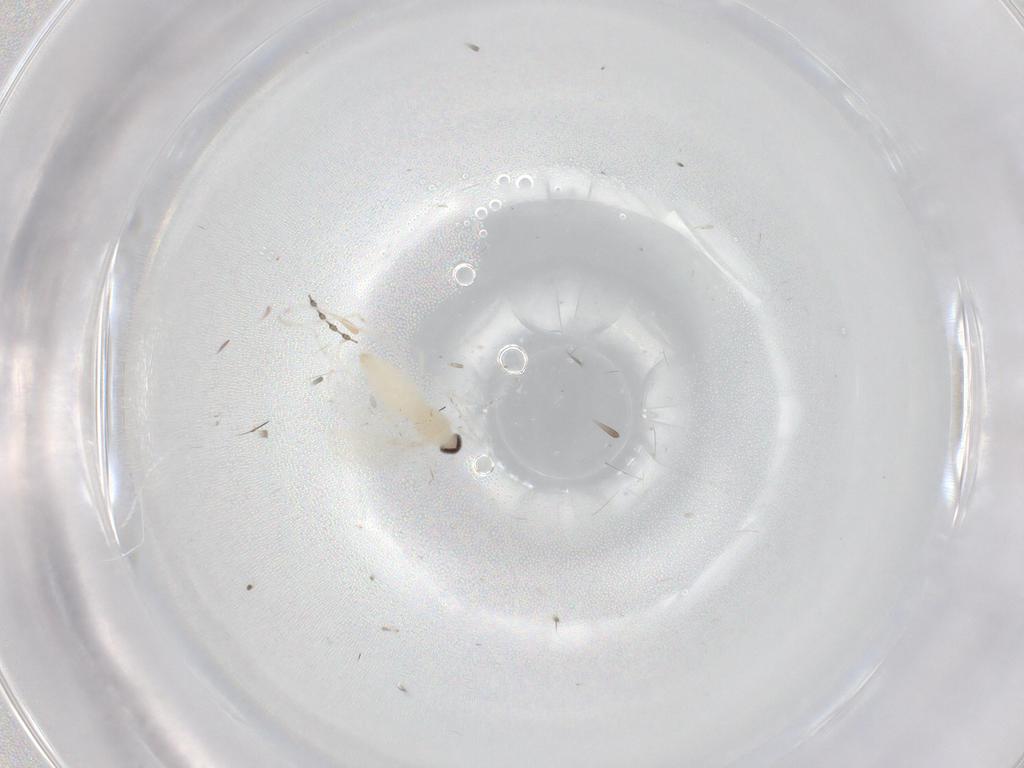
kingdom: Animalia
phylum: Arthropoda
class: Insecta
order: Diptera
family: Cecidomyiidae
